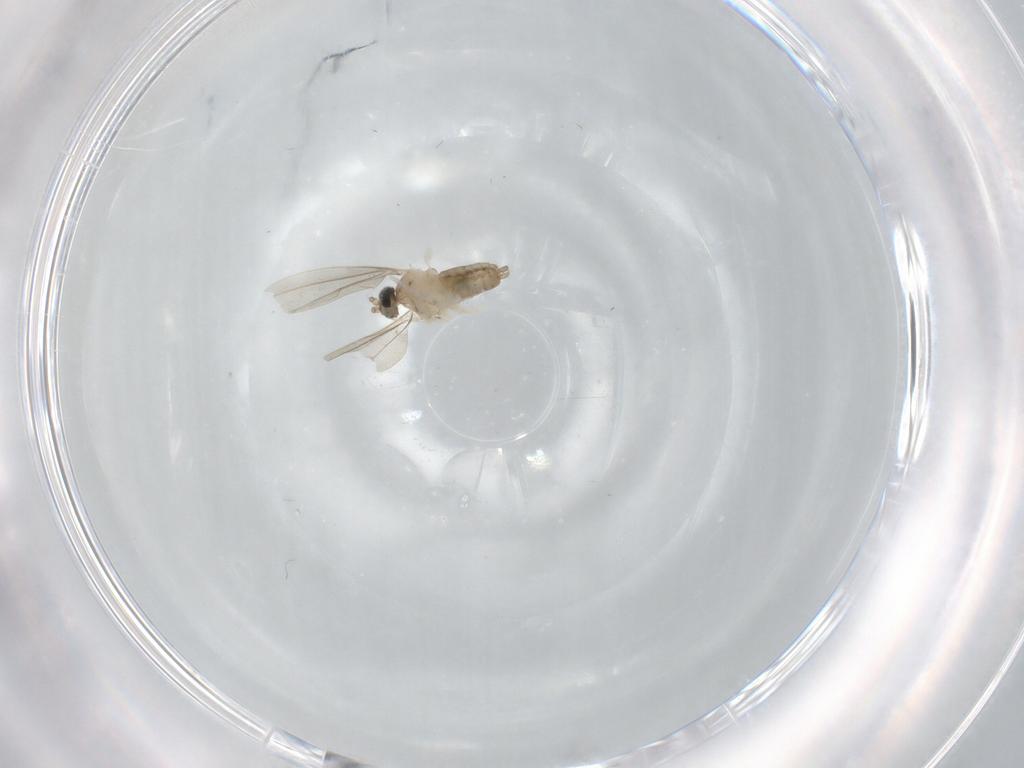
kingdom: Animalia
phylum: Arthropoda
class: Insecta
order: Diptera
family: Cecidomyiidae
